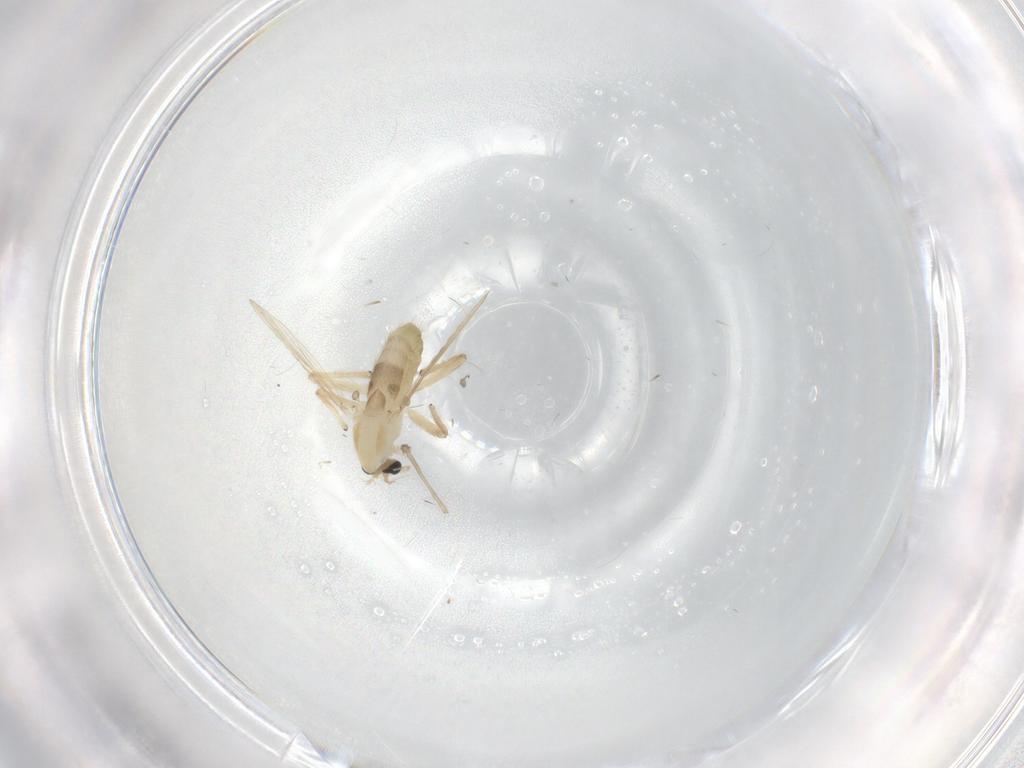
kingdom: Animalia
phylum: Arthropoda
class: Insecta
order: Diptera
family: Chironomidae
